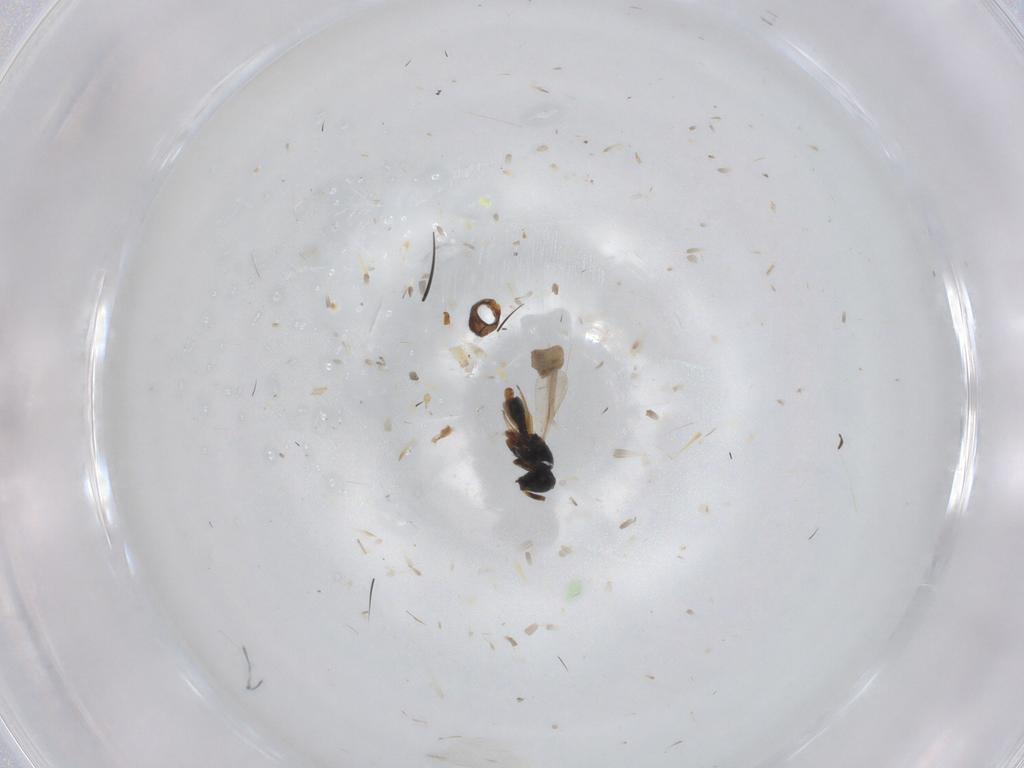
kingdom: Animalia
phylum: Arthropoda
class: Insecta
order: Hymenoptera
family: Scelionidae
